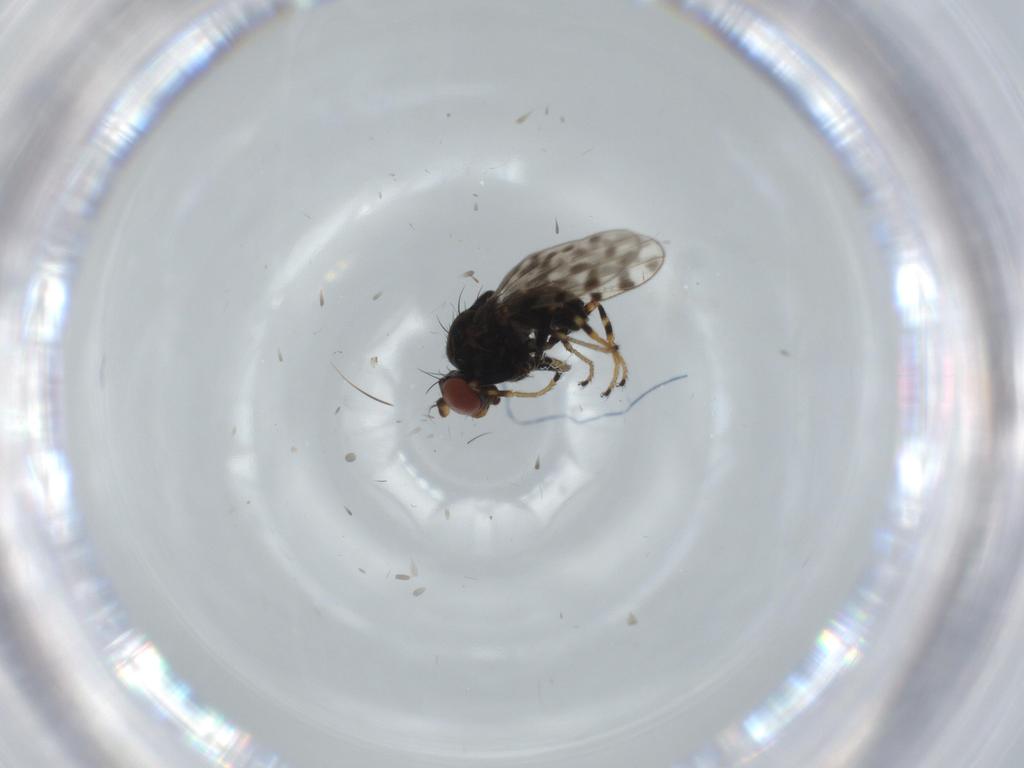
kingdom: Animalia
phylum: Arthropoda
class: Insecta
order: Diptera
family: Ephydridae
